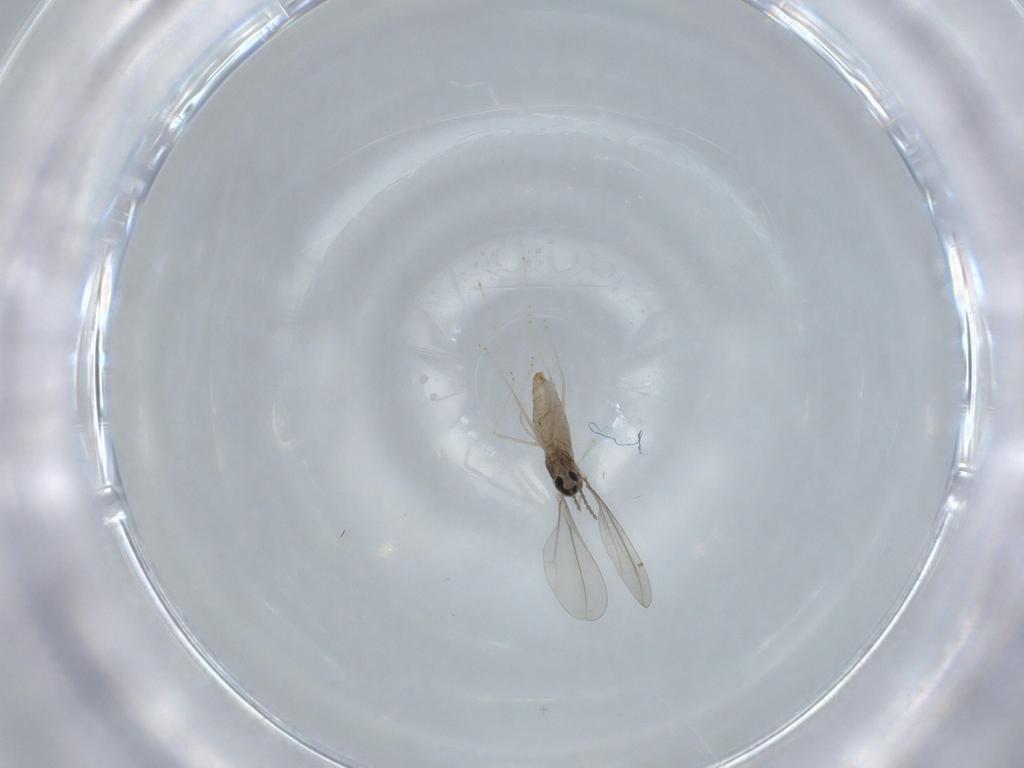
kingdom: Animalia
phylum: Arthropoda
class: Insecta
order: Diptera
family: Cecidomyiidae
